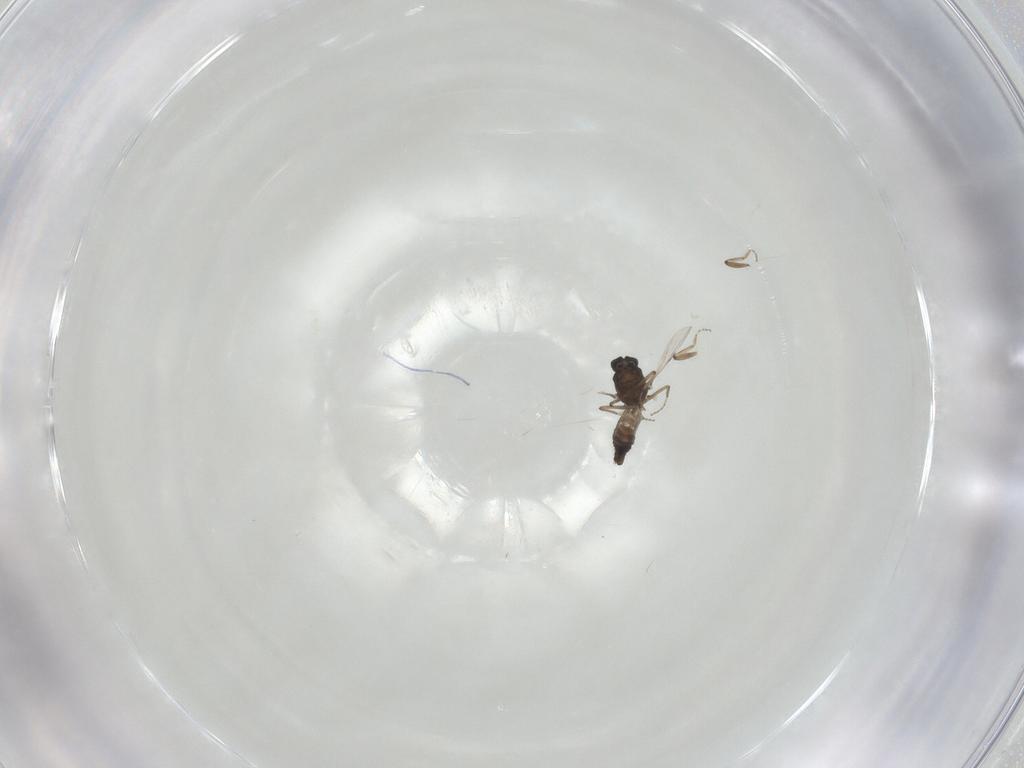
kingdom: Animalia
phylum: Arthropoda
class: Insecta
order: Diptera
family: Ceratopogonidae
